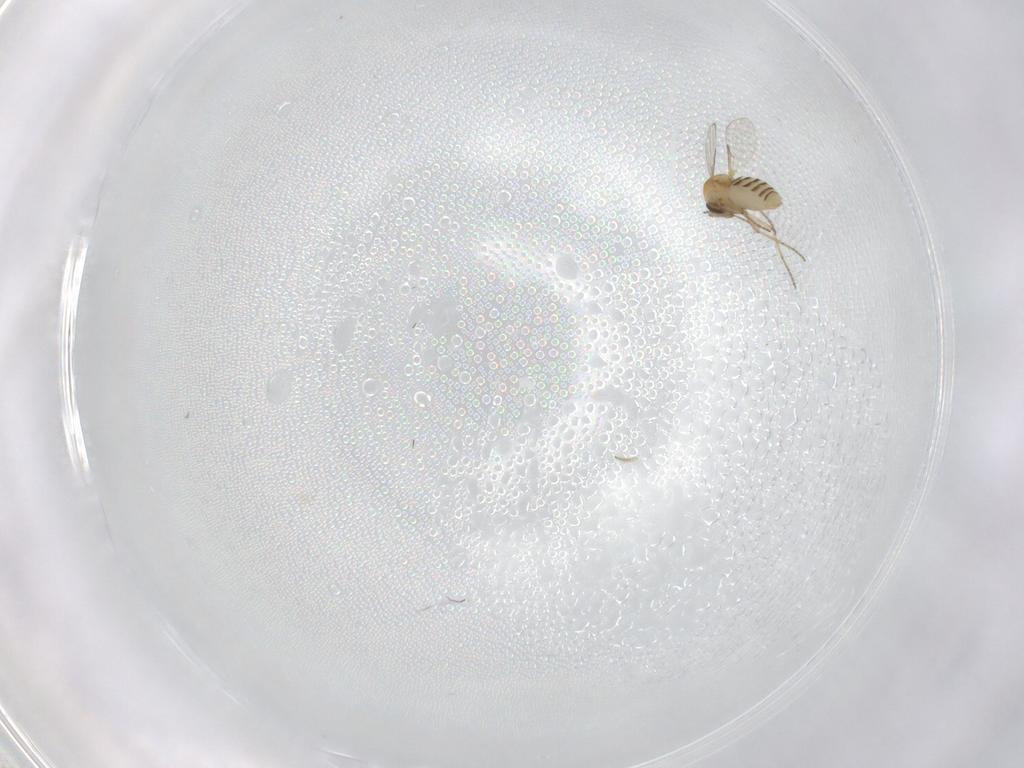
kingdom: Animalia
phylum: Arthropoda
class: Insecta
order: Diptera
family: Ceratopogonidae
